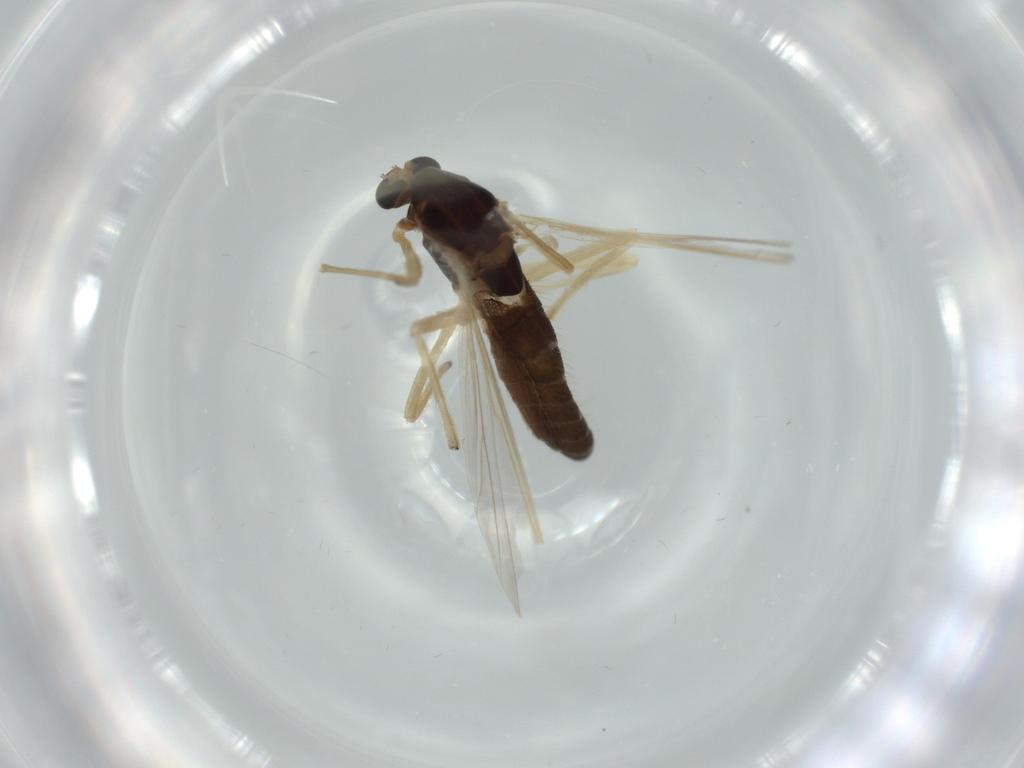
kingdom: Animalia
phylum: Arthropoda
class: Insecta
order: Diptera
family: Chironomidae
